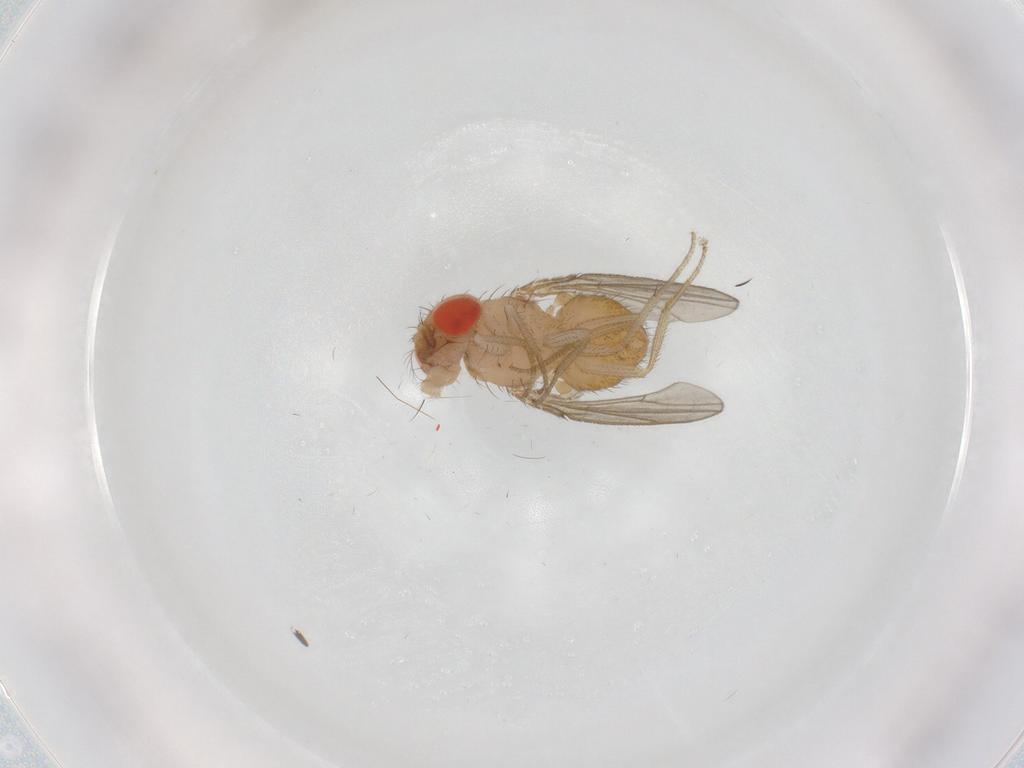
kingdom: Animalia
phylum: Arthropoda
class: Insecta
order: Diptera
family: Drosophilidae
